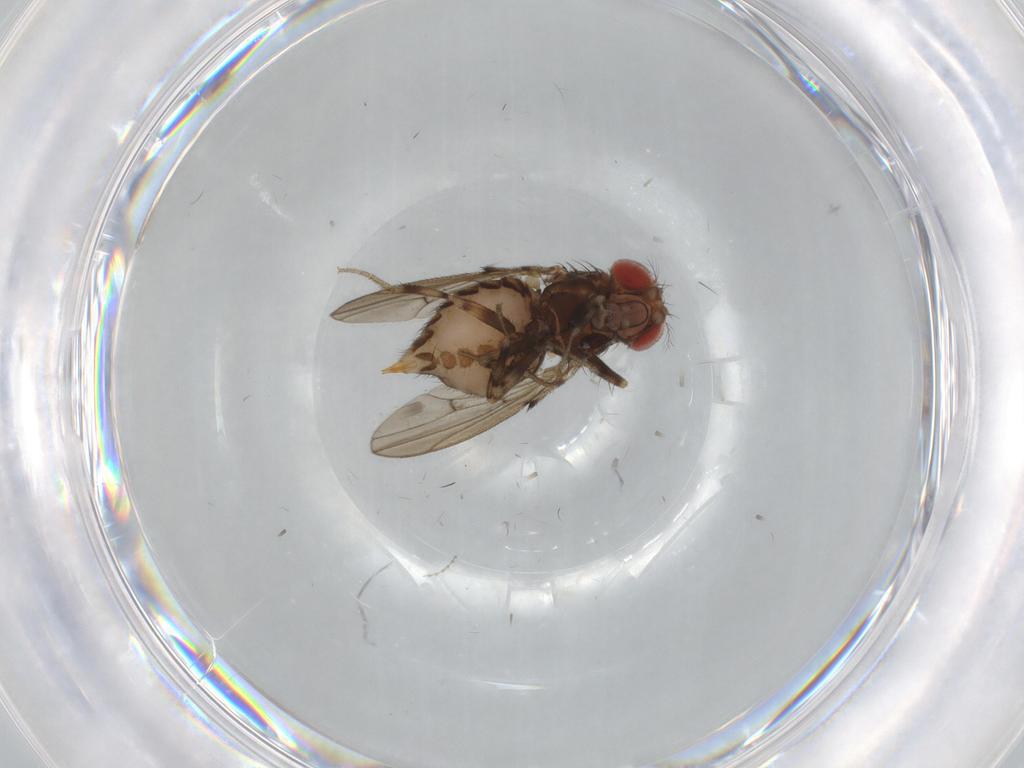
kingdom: Animalia
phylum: Arthropoda
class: Insecta
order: Diptera
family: Drosophilidae
